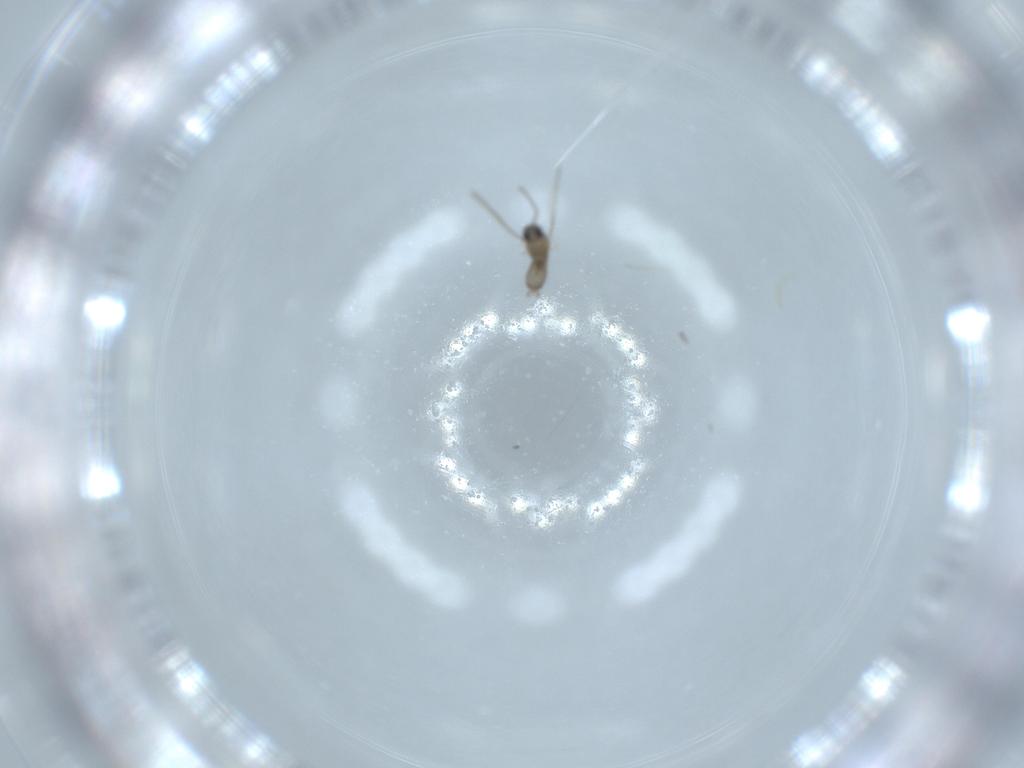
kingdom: Animalia
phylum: Arthropoda
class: Insecta
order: Diptera
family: Cecidomyiidae
